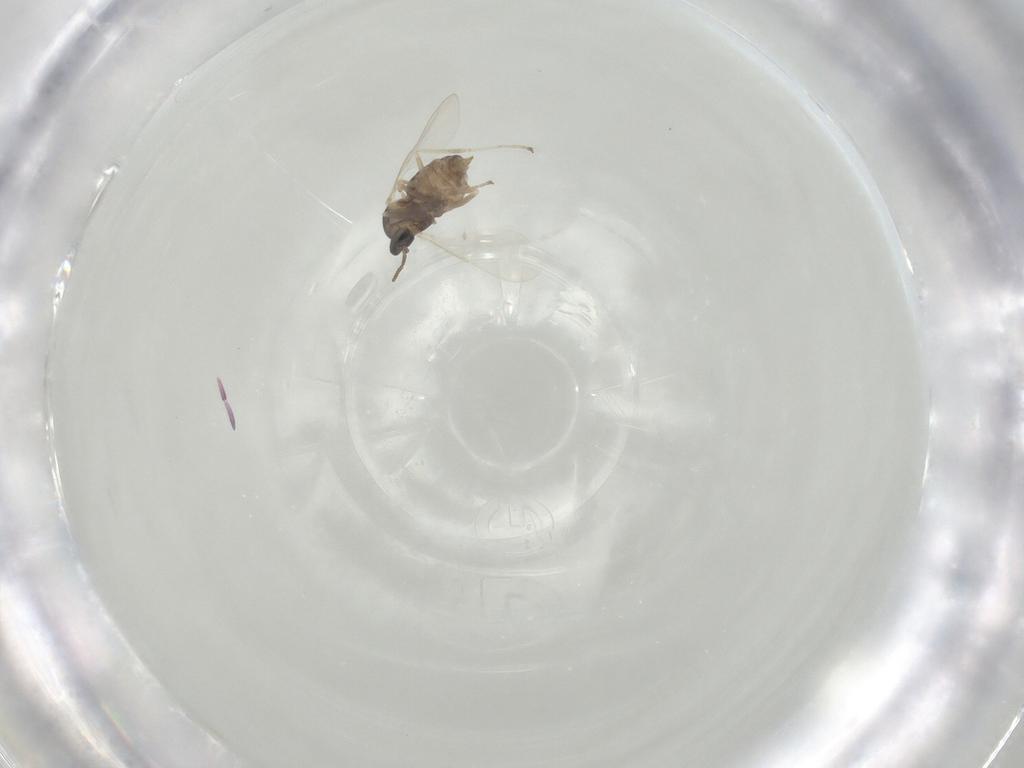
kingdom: Animalia
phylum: Arthropoda
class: Insecta
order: Diptera
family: Cecidomyiidae
